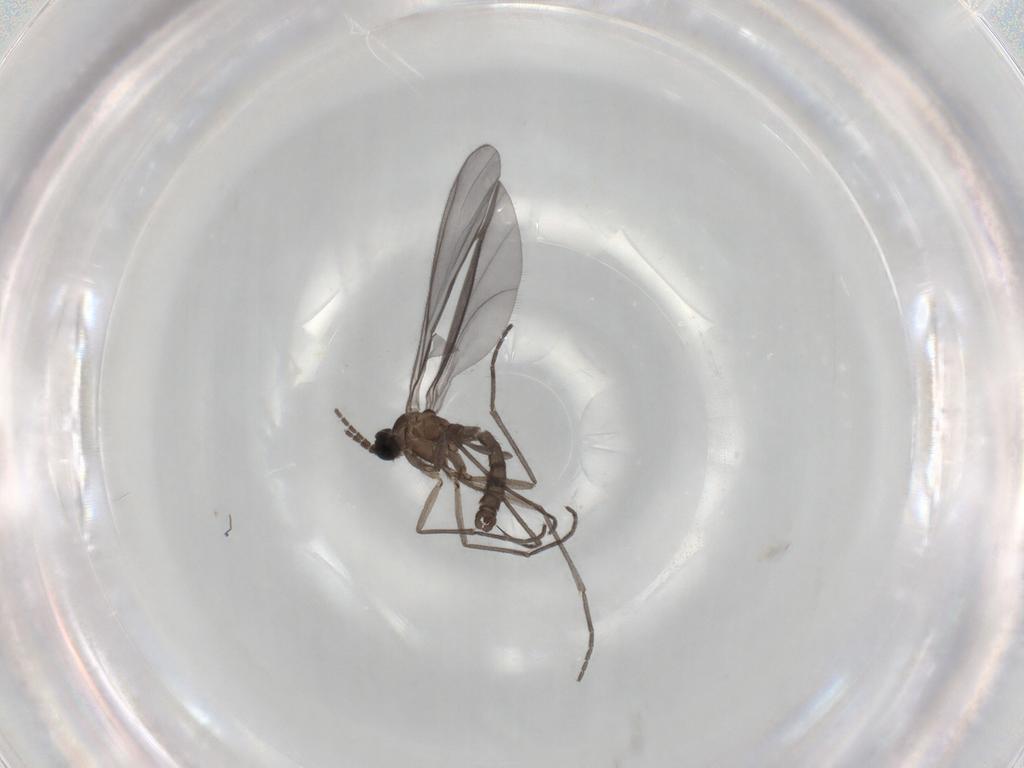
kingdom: Animalia
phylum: Arthropoda
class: Insecta
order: Diptera
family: Sciaridae
